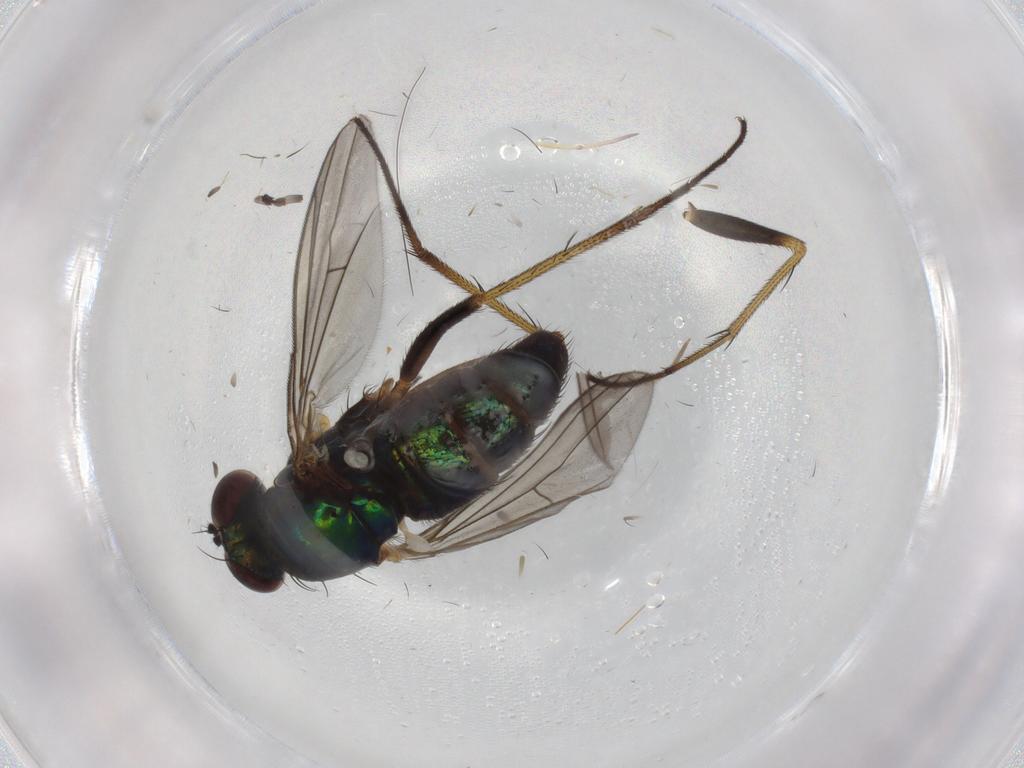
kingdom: Animalia
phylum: Arthropoda
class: Insecta
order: Diptera
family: Dolichopodidae
